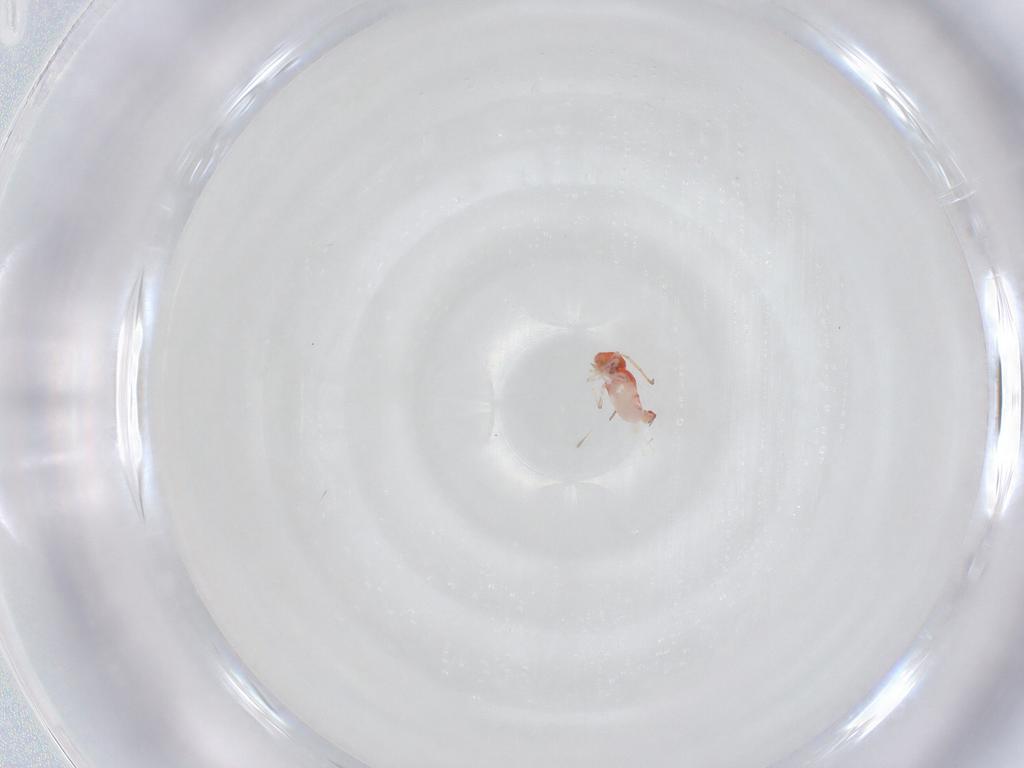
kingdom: Animalia
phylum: Arthropoda
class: Collembola
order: Symphypleona
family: Bourletiellidae
